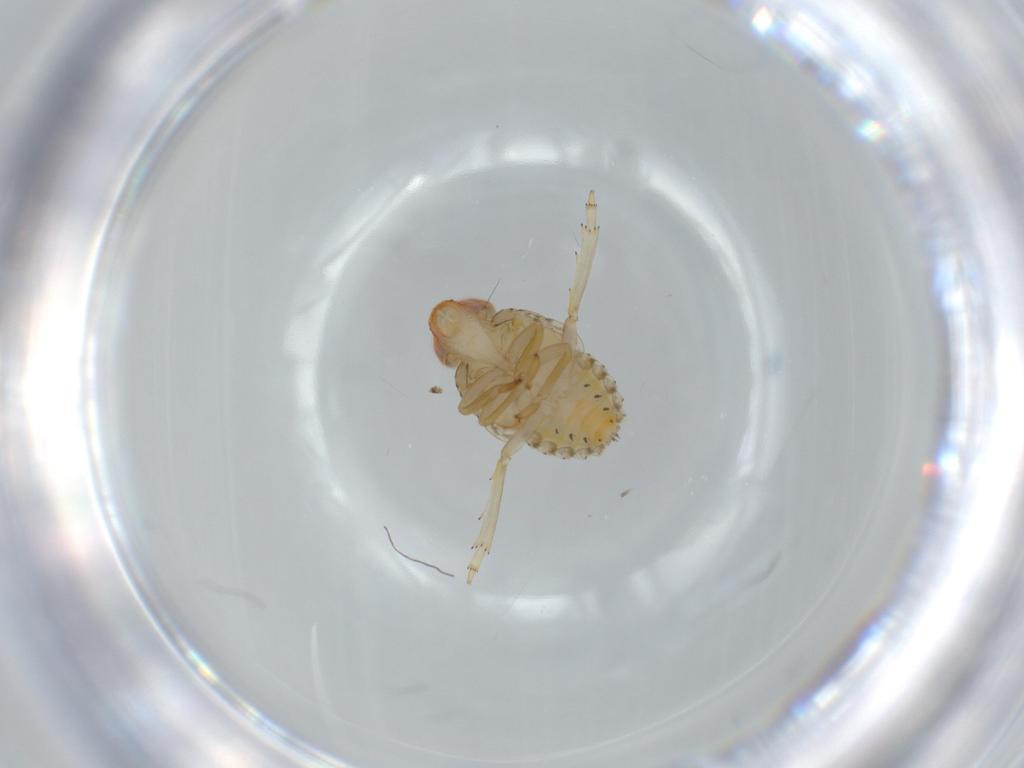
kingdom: Animalia
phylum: Arthropoda
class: Insecta
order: Hemiptera
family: Fulgoroidea_incertae_sedis
